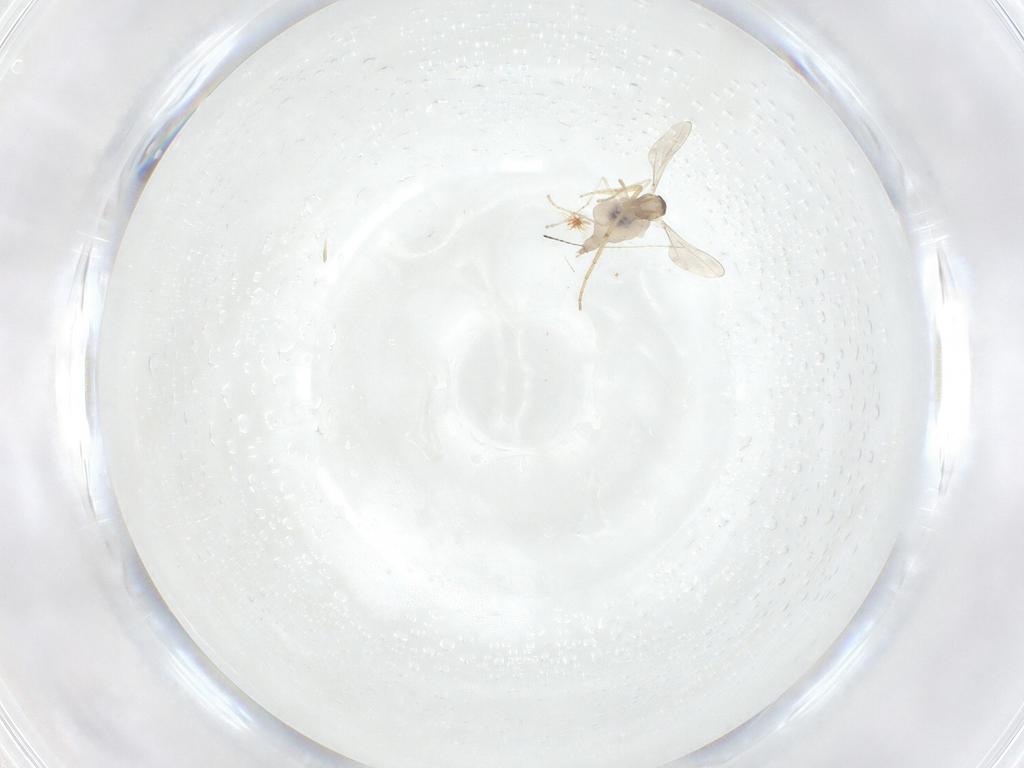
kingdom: Animalia
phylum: Arthropoda
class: Insecta
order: Diptera
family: Cecidomyiidae
